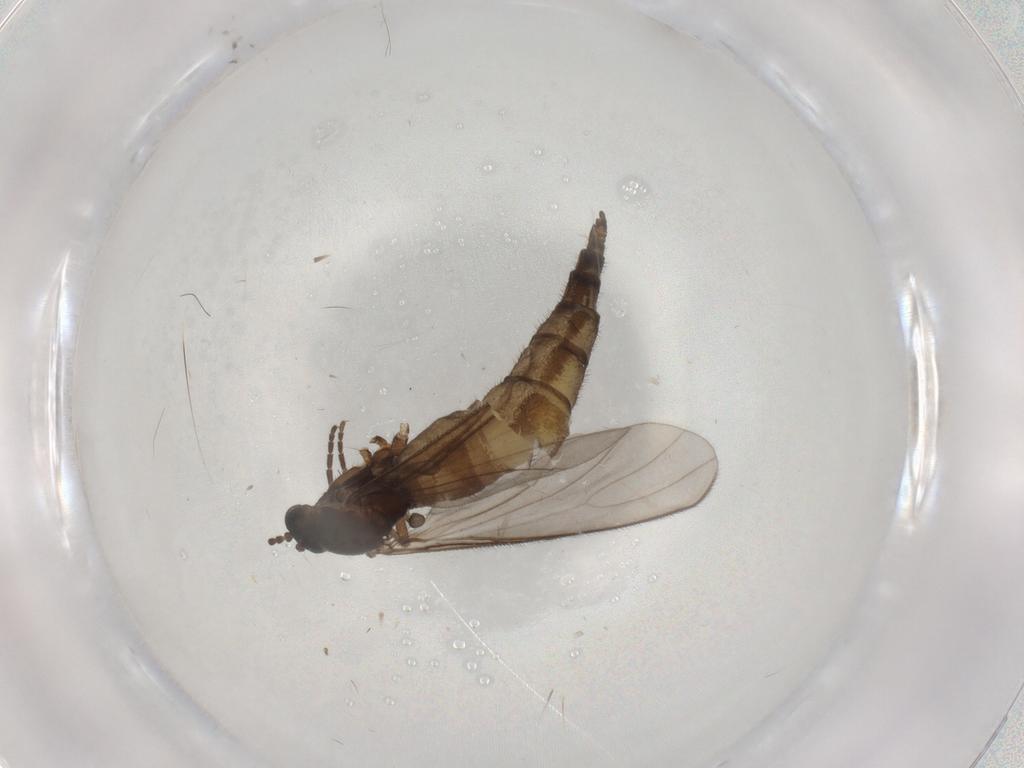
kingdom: Animalia
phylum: Arthropoda
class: Insecta
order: Diptera
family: Sciaridae
